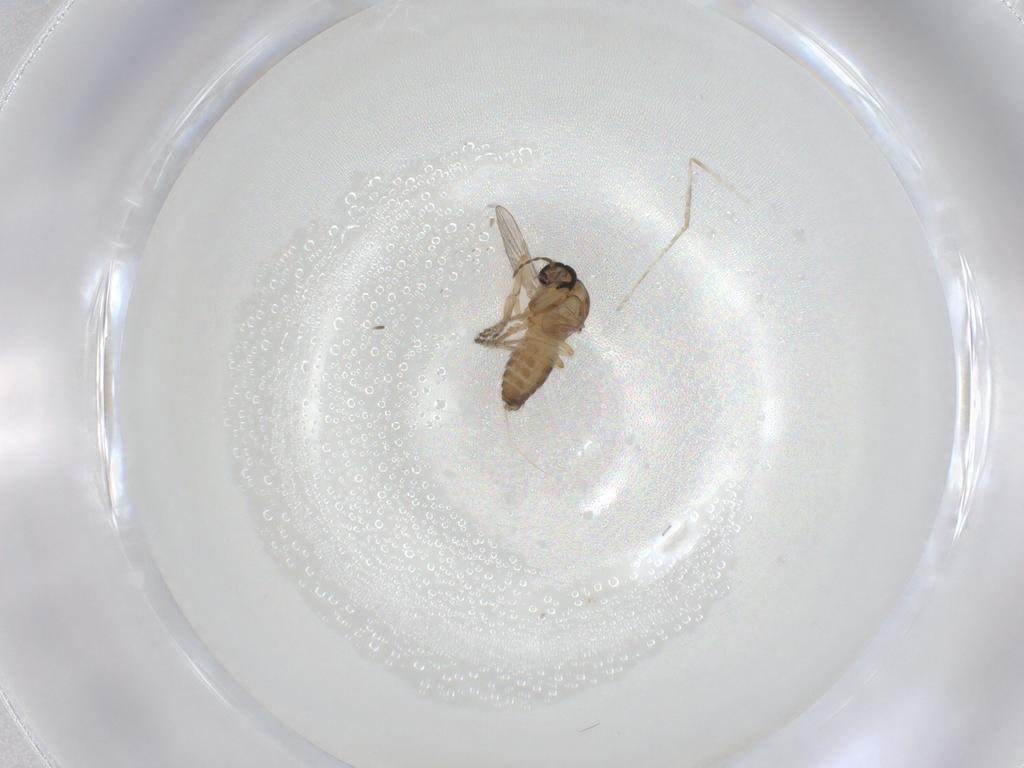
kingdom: Animalia
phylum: Arthropoda
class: Insecta
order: Diptera
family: Ceratopogonidae
